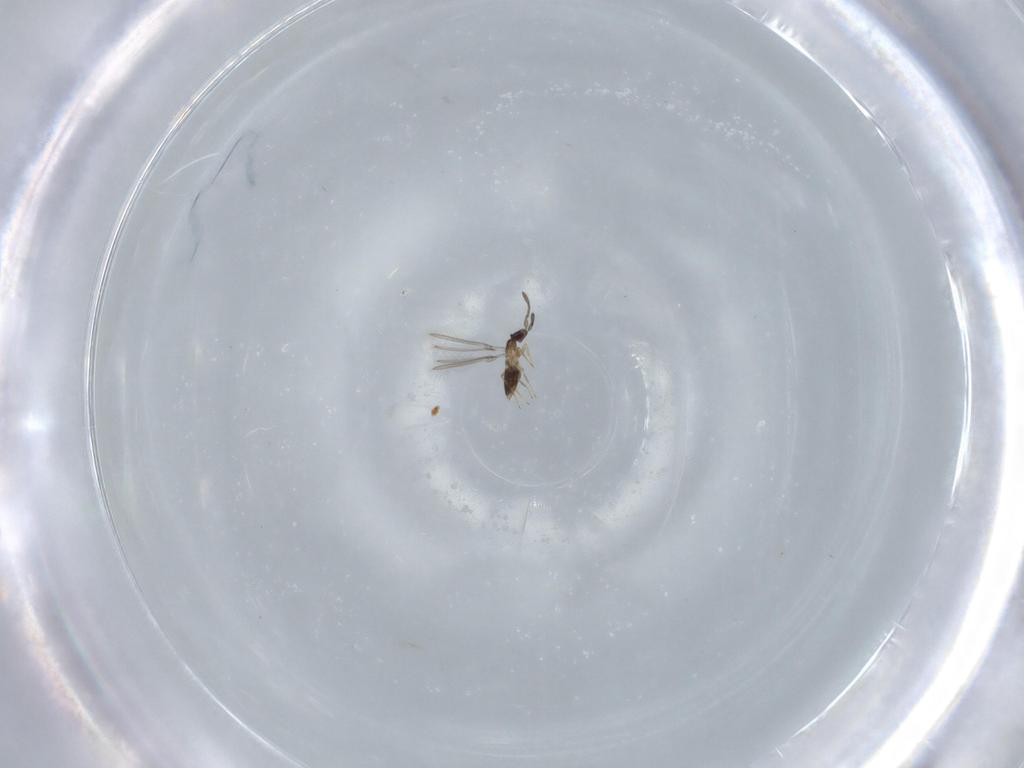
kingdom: Animalia
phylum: Arthropoda
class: Insecta
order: Hymenoptera
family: Mymaridae
